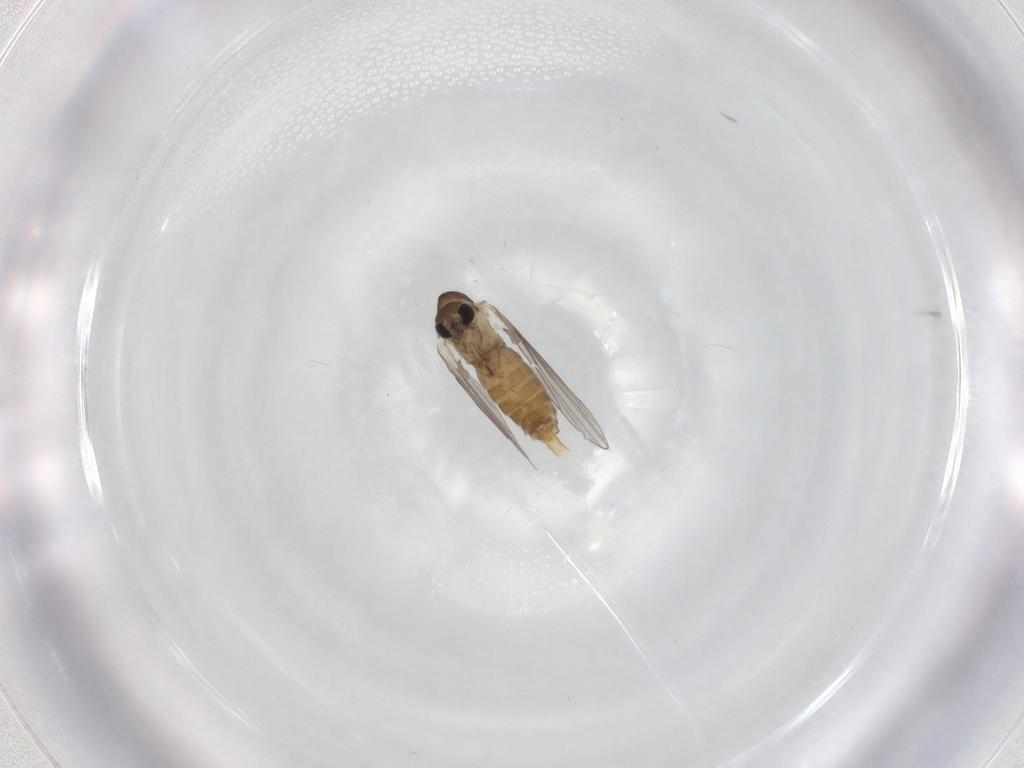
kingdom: Animalia
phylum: Arthropoda
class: Insecta
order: Diptera
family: Psychodidae
